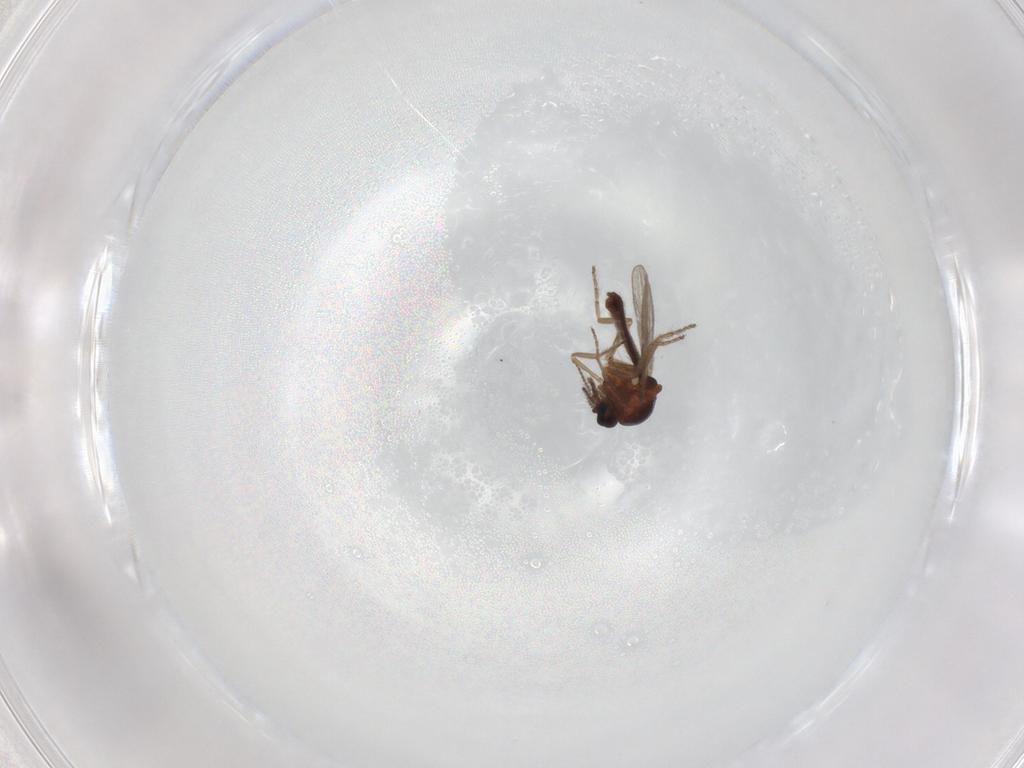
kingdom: Animalia
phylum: Arthropoda
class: Insecta
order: Diptera
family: Ceratopogonidae
